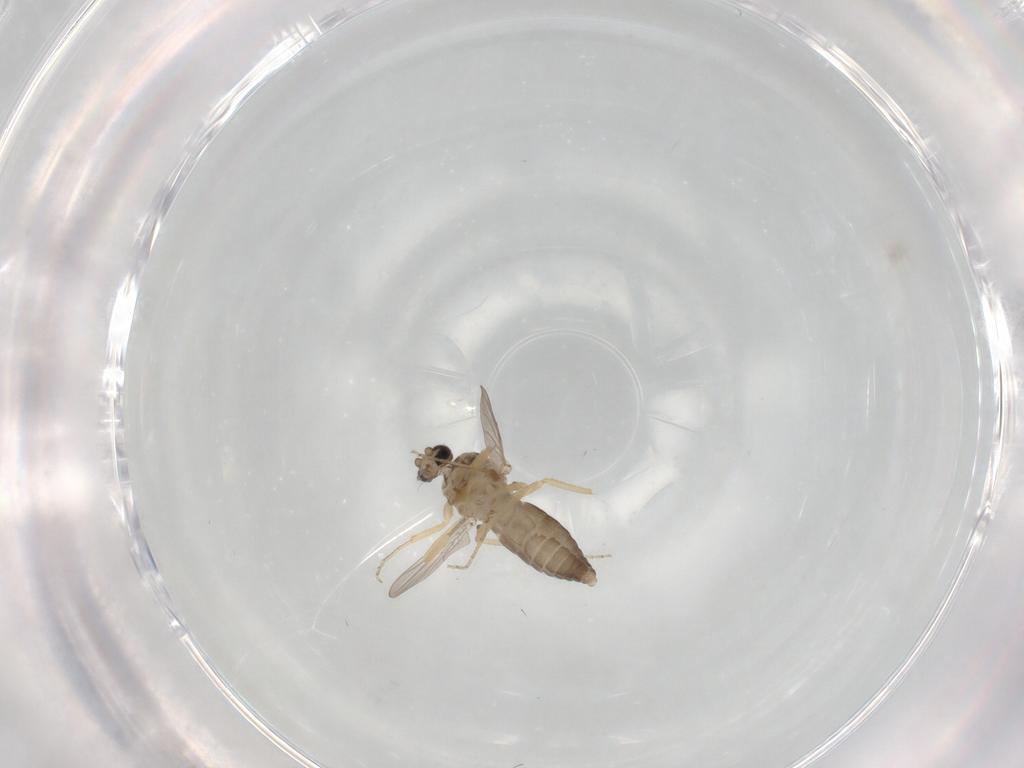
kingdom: Animalia
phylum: Arthropoda
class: Insecta
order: Diptera
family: Ceratopogonidae
